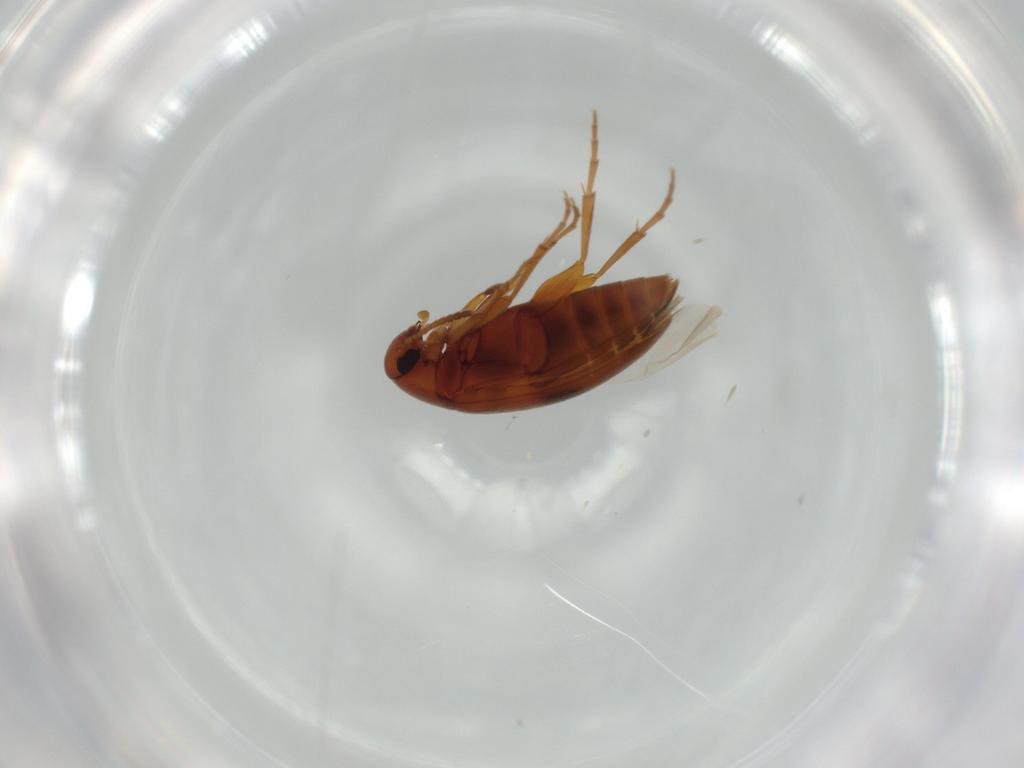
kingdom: Animalia
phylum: Arthropoda
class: Insecta
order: Coleoptera
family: Scraptiidae
